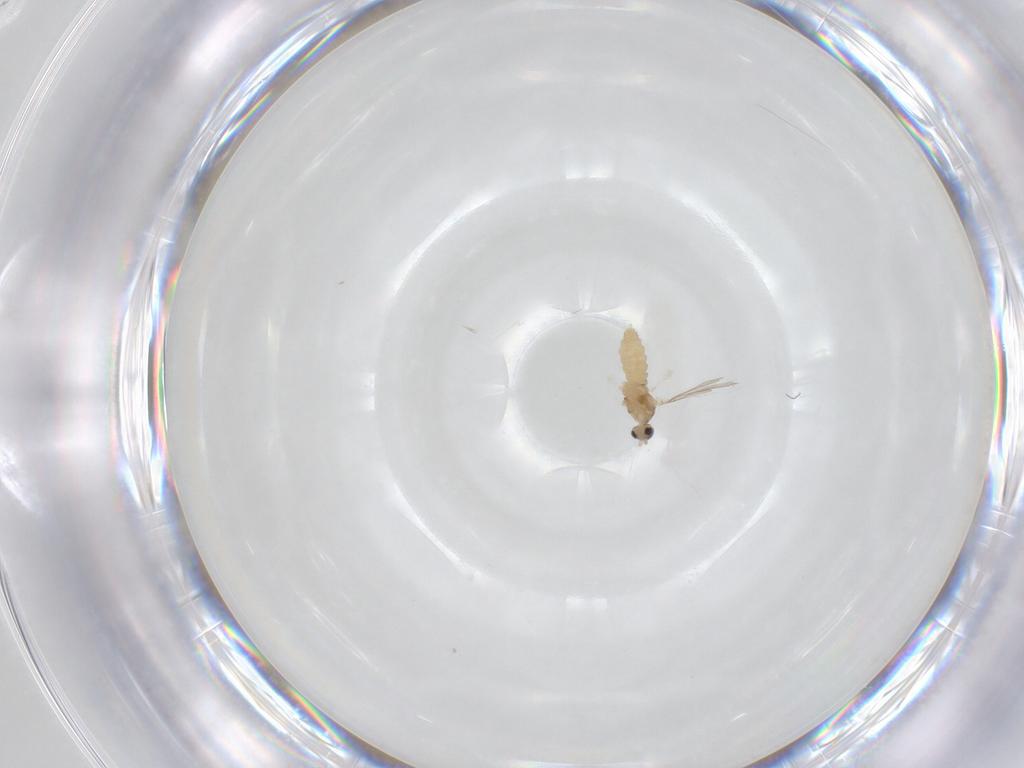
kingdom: Animalia
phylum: Arthropoda
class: Insecta
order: Diptera
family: Cecidomyiidae
